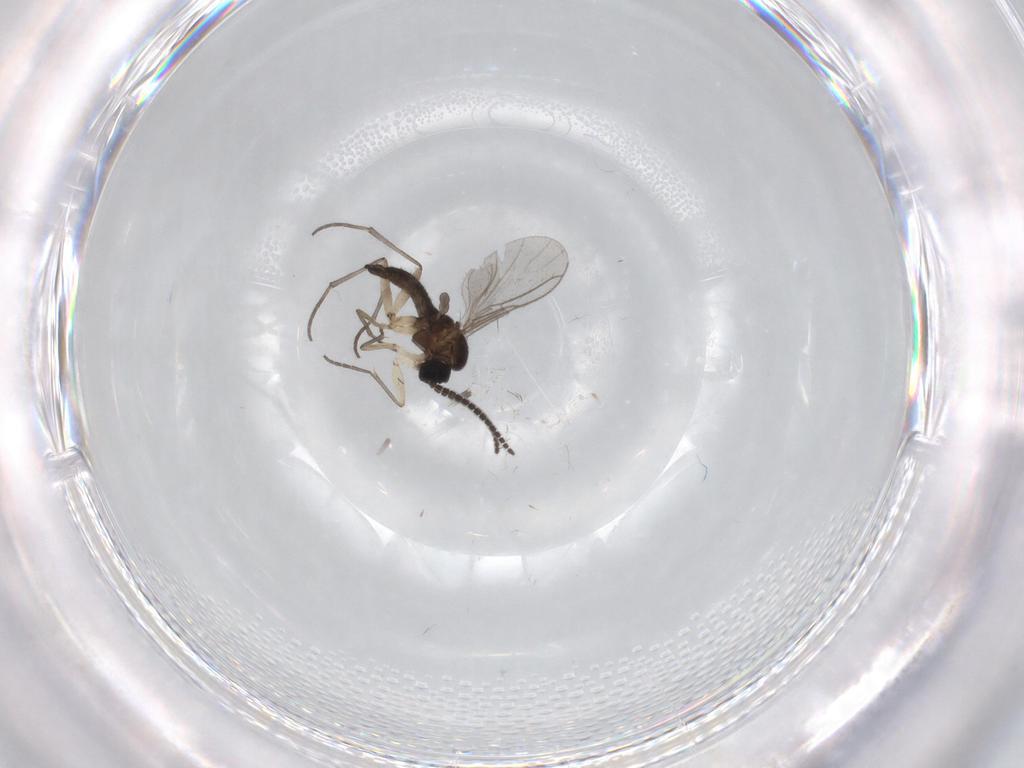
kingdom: Animalia
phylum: Arthropoda
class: Insecta
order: Diptera
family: Sciaridae
